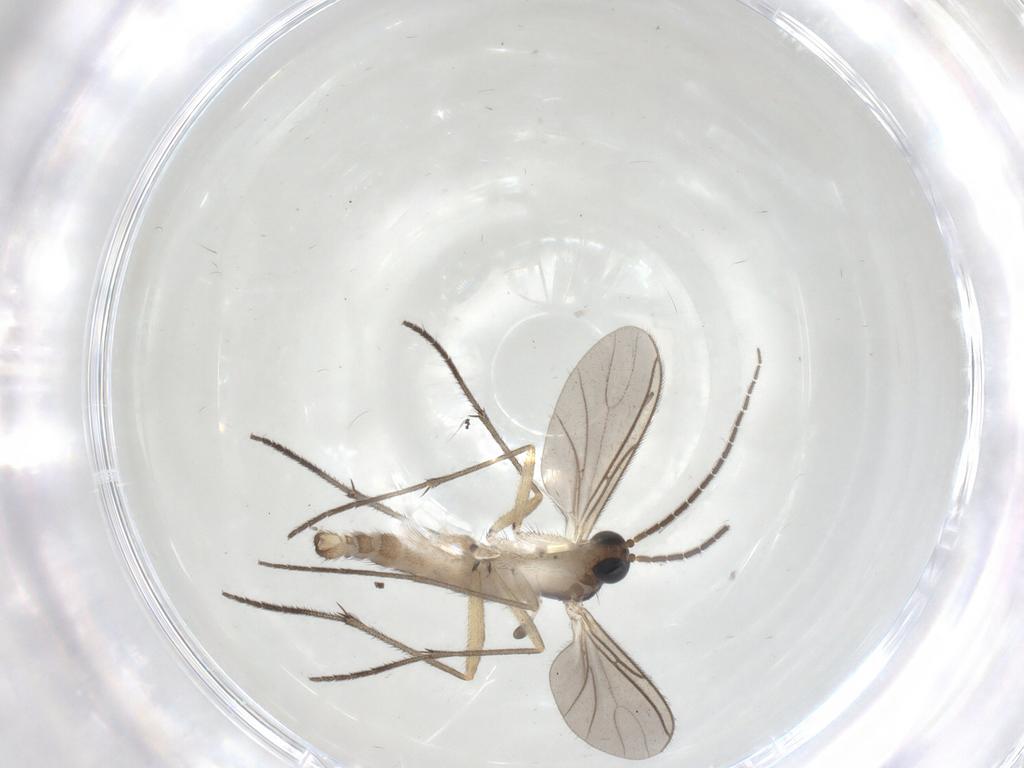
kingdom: Animalia
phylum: Arthropoda
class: Insecta
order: Diptera
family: Sciaridae
